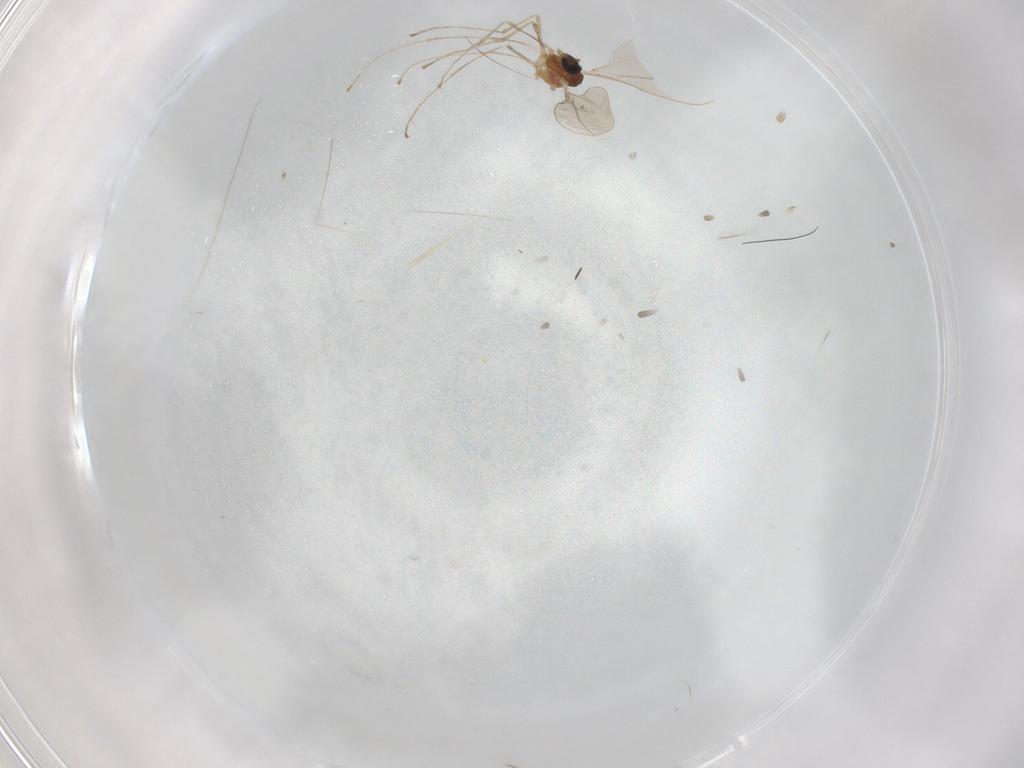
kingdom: Animalia
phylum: Arthropoda
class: Insecta
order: Diptera
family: Cecidomyiidae
